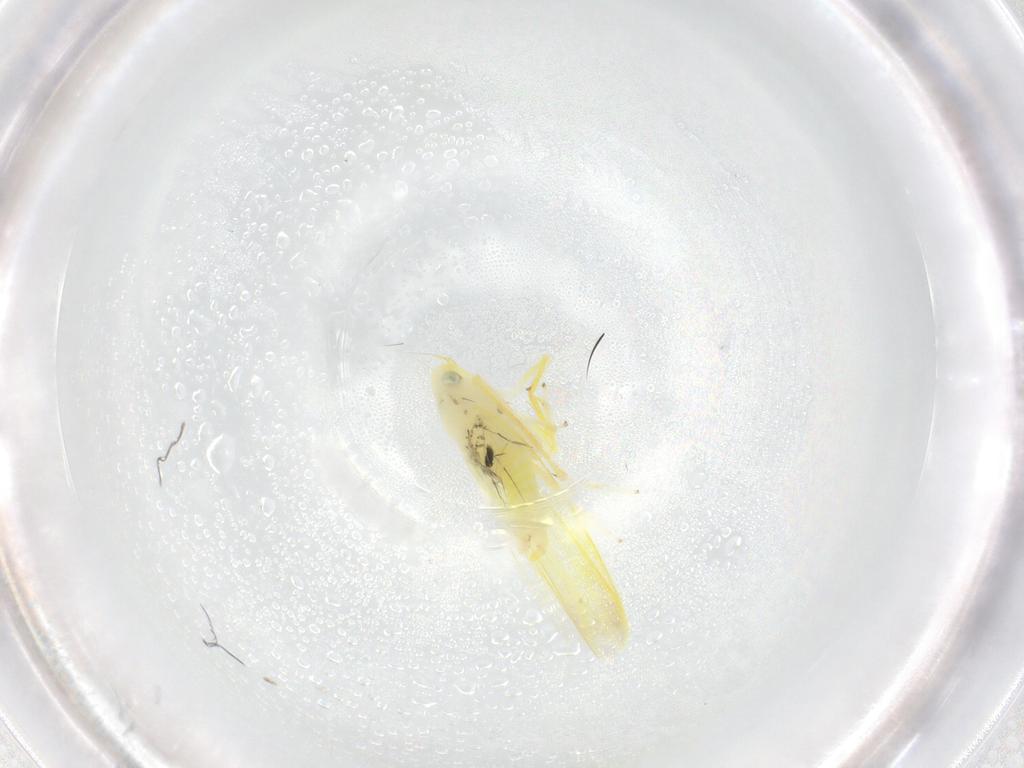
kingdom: Animalia
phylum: Arthropoda
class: Insecta
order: Hemiptera
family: Cicadellidae
